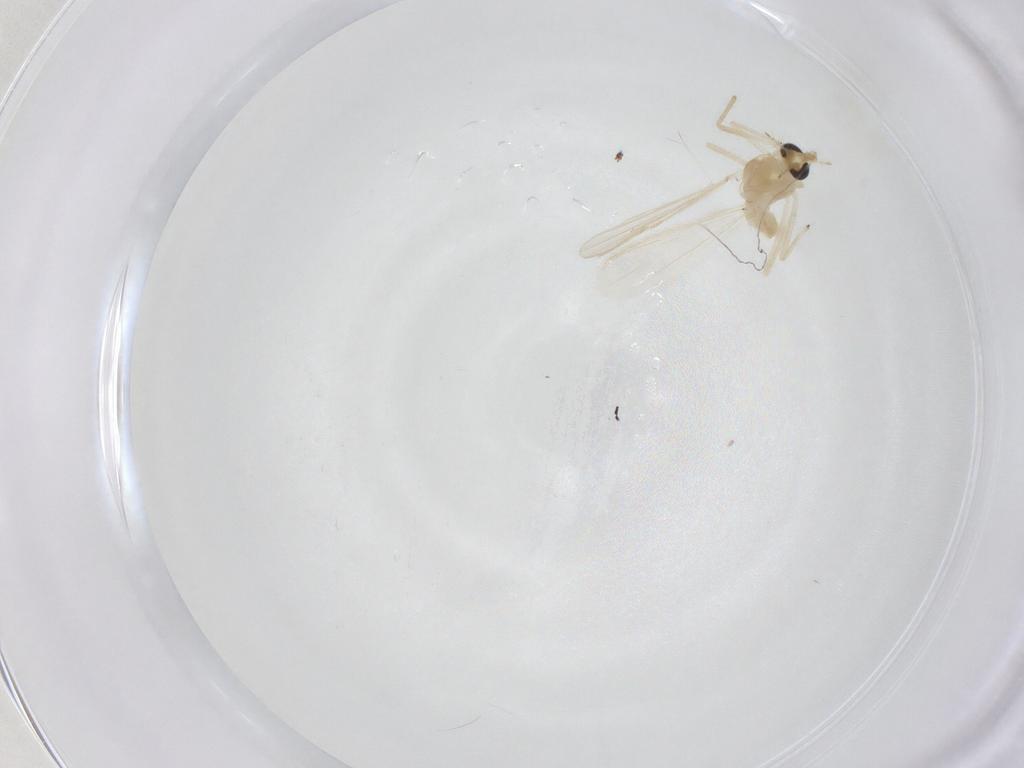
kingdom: Animalia
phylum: Arthropoda
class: Insecta
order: Diptera
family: Chironomidae
